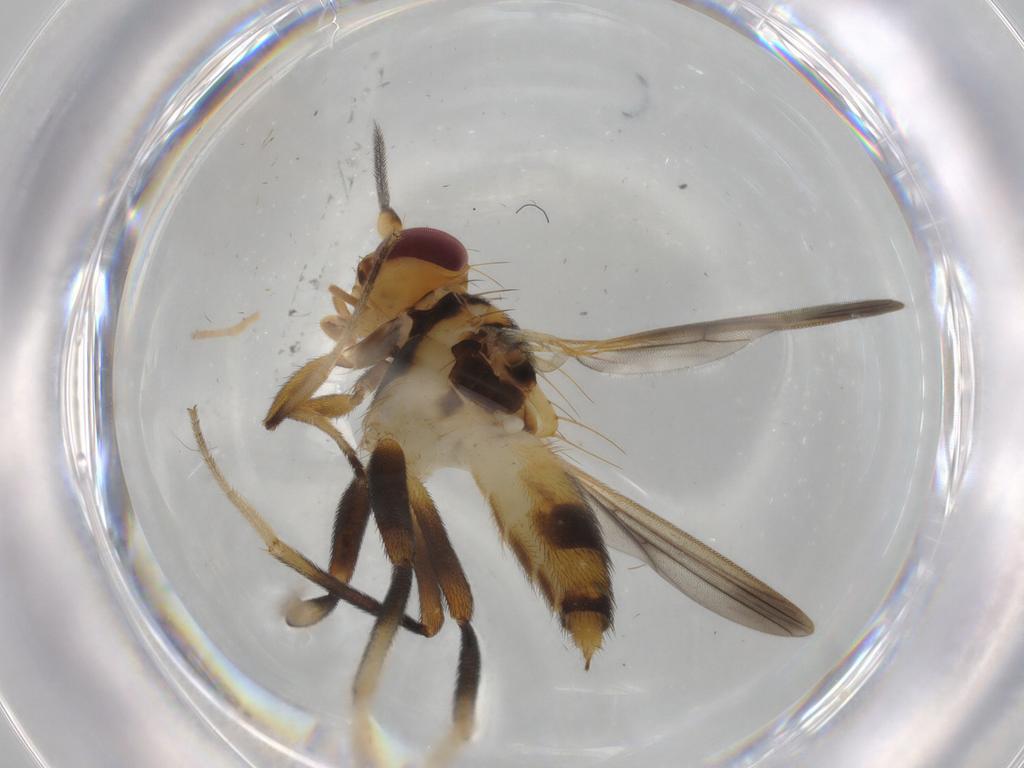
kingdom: Animalia
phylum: Arthropoda
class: Insecta
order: Diptera
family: Clusiidae
